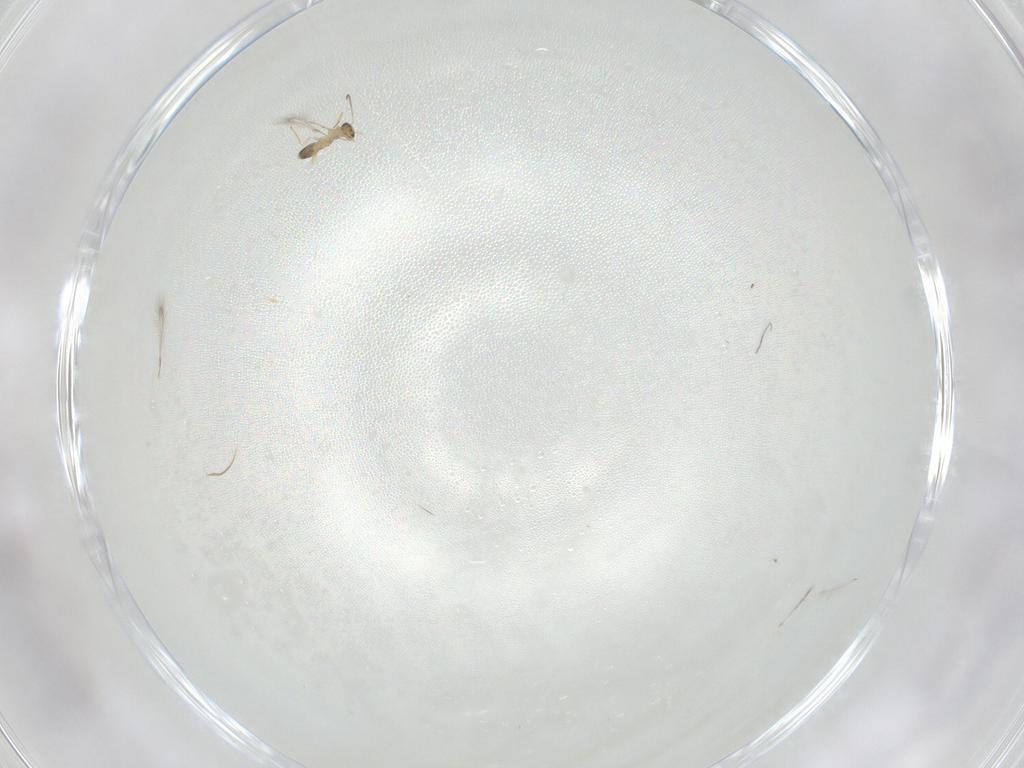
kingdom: Animalia
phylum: Arthropoda
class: Insecta
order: Hymenoptera
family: Mymaridae
